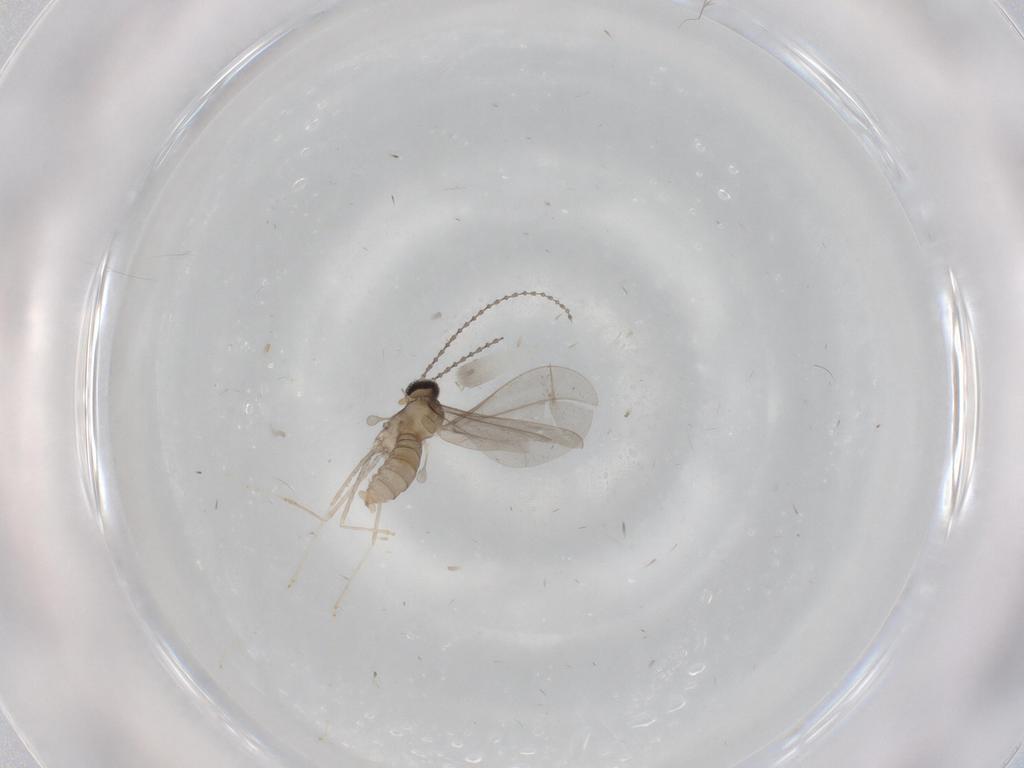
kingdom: Animalia
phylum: Arthropoda
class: Insecta
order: Diptera
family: Cecidomyiidae
